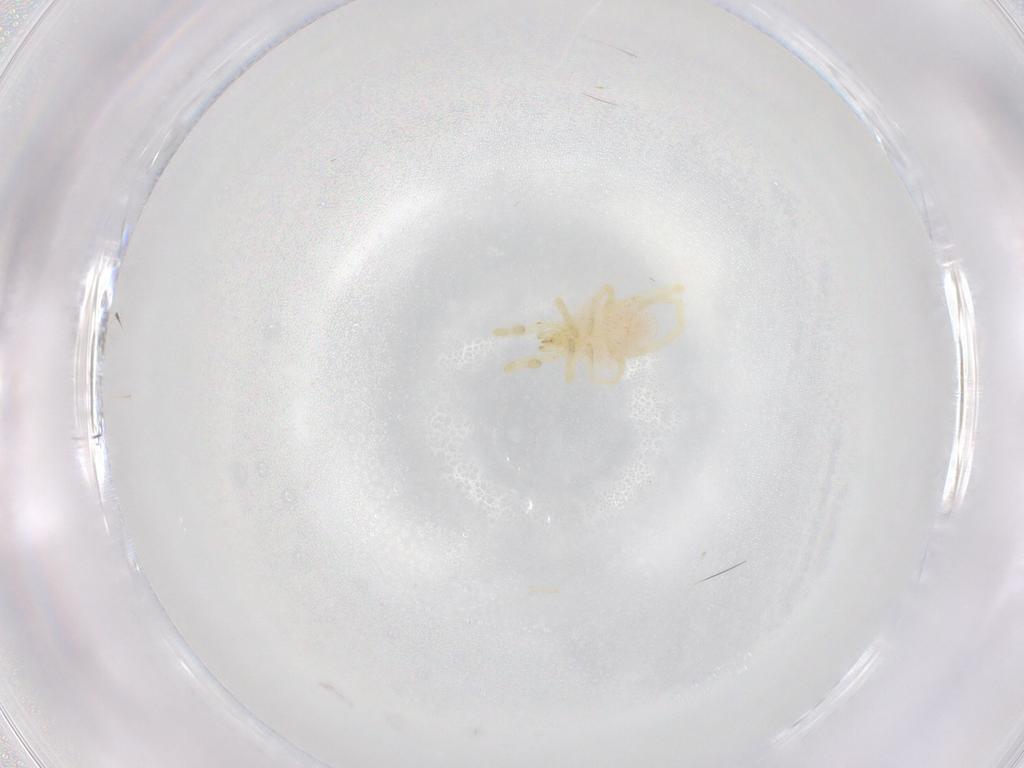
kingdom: Animalia
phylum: Arthropoda
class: Arachnida
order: Trombidiformes
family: Erythraeidae
